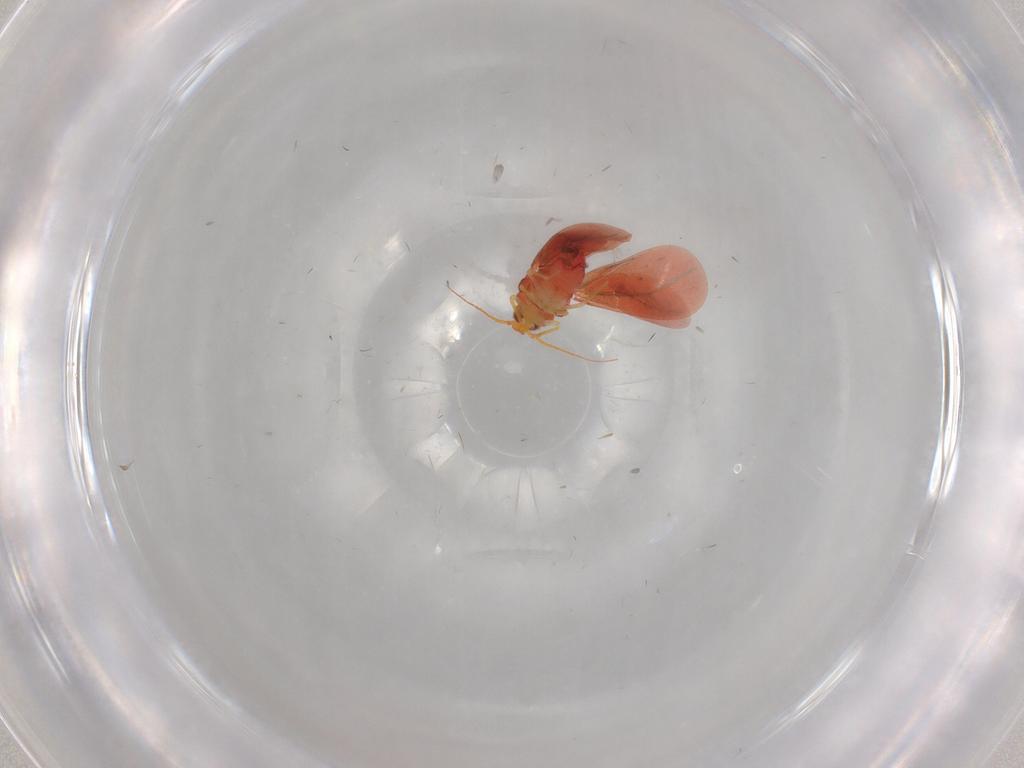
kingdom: Animalia
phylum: Arthropoda
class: Insecta
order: Hemiptera
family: Aleyrodidae
